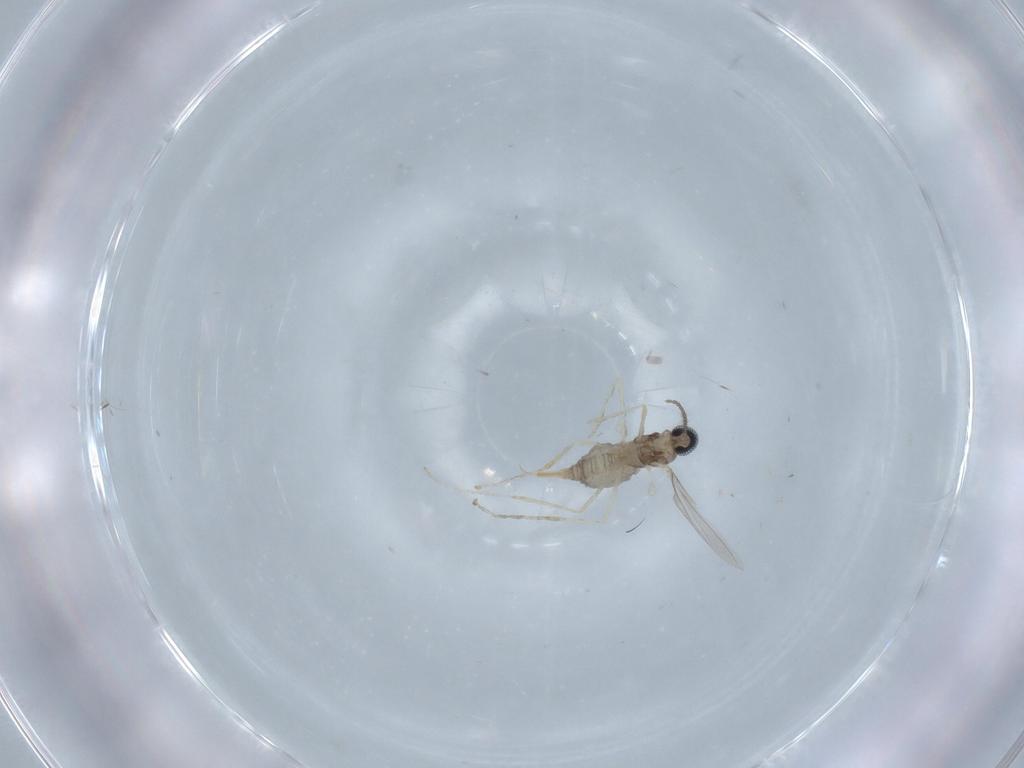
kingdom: Animalia
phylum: Arthropoda
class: Insecta
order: Diptera
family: Cecidomyiidae
